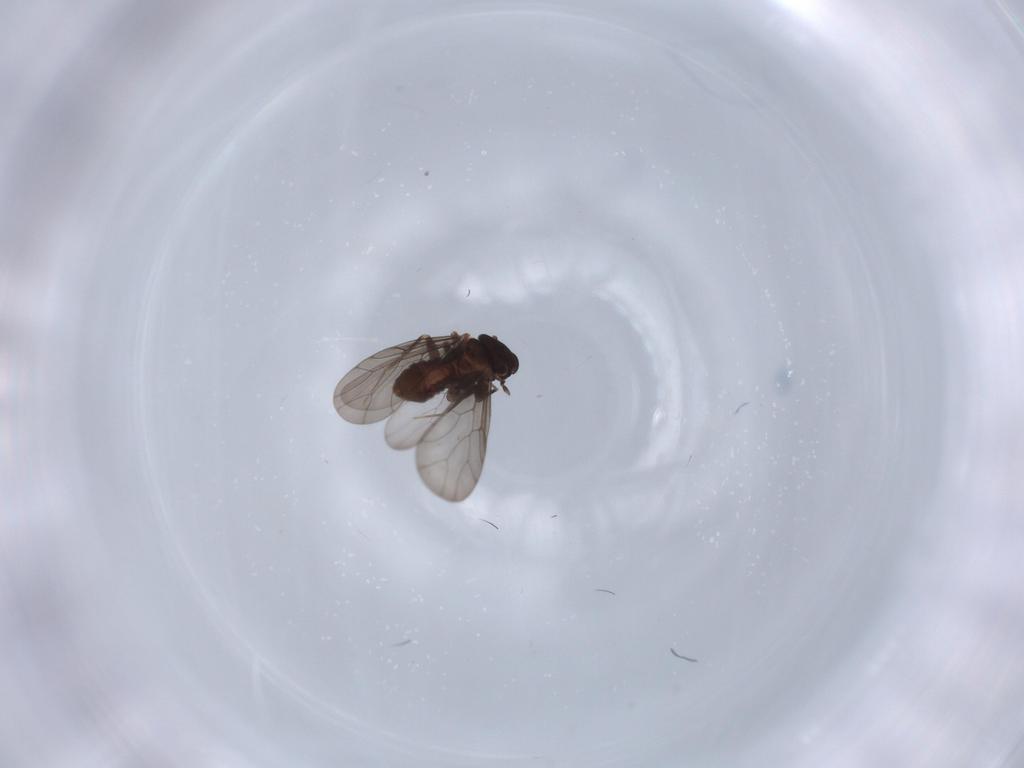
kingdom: Animalia
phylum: Arthropoda
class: Insecta
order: Psocodea
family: Lepidopsocidae
